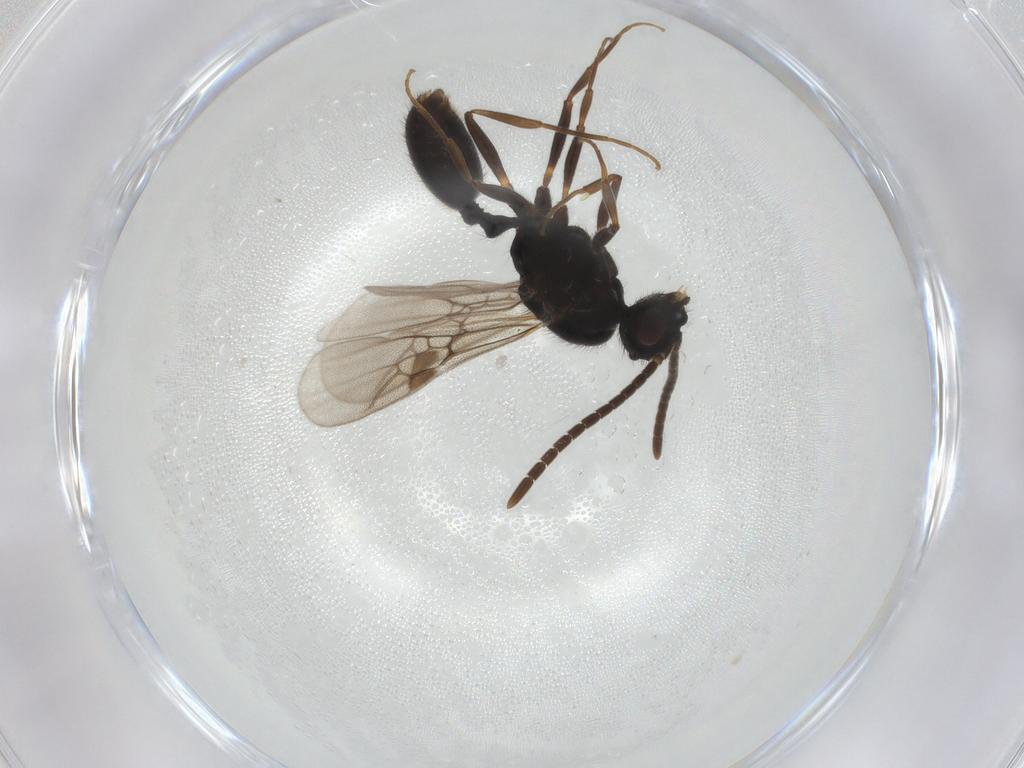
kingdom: Animalia
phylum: Arthropoda
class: Insecta
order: Hymenoptera
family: Formicidae
